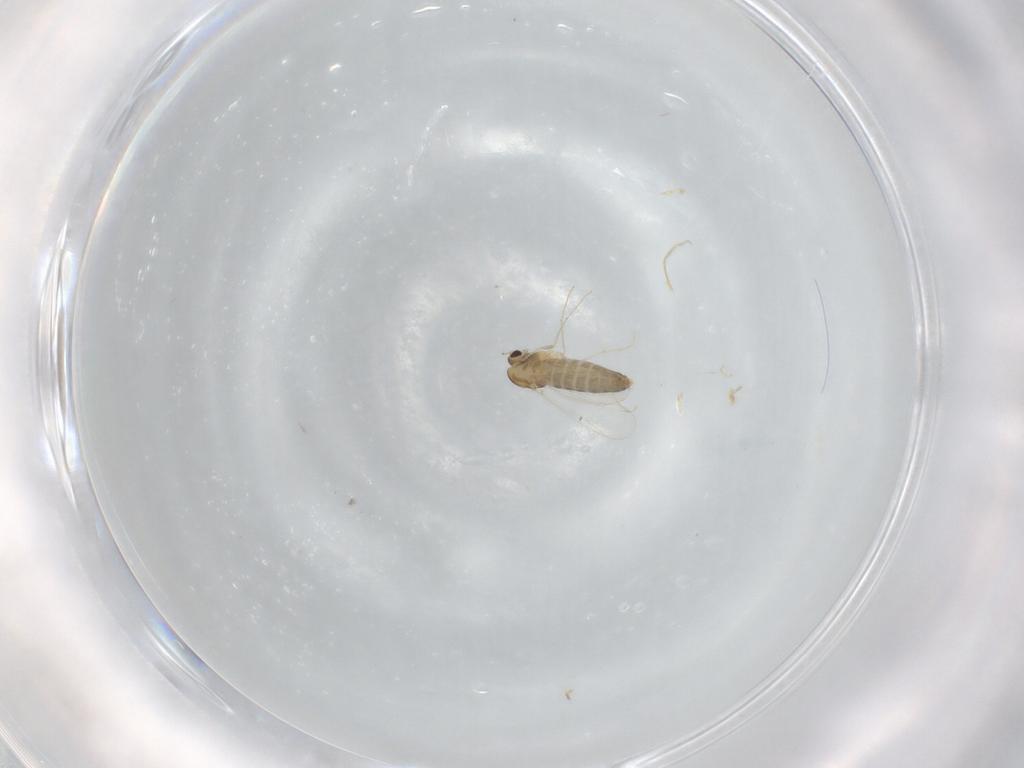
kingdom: Animalia
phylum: Arthropoda
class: Insecta
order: Diptera
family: Chironomidae
